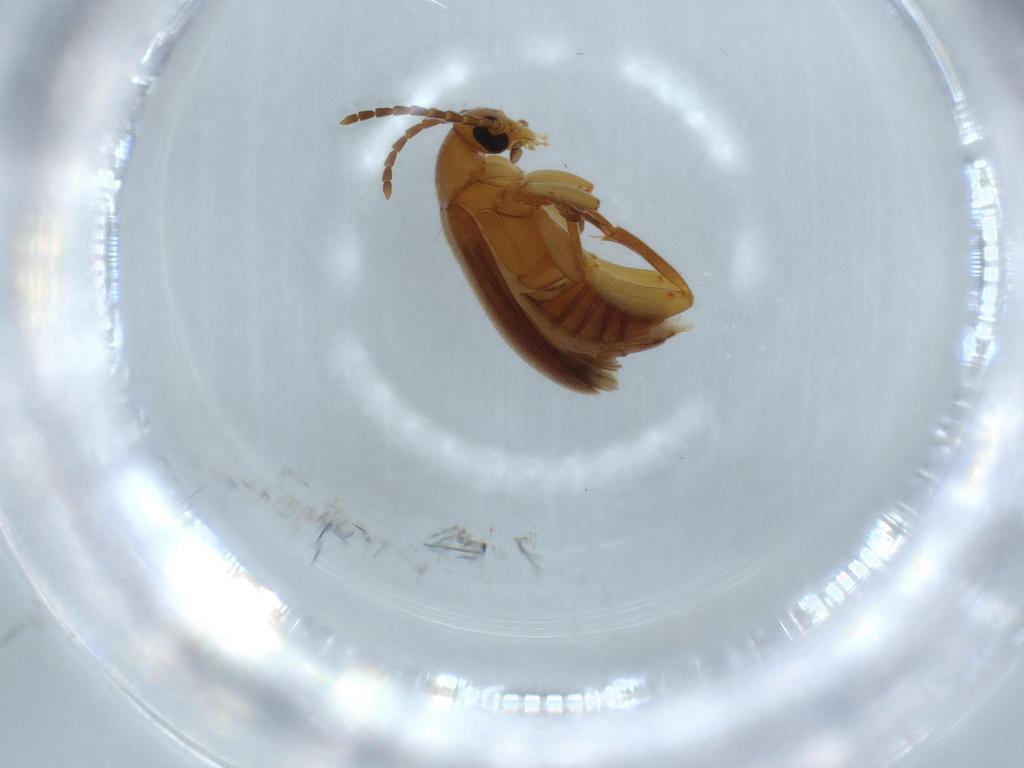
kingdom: Animalia
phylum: Arthropoda
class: Insecta
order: Coleoptera
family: Scraptiidae
